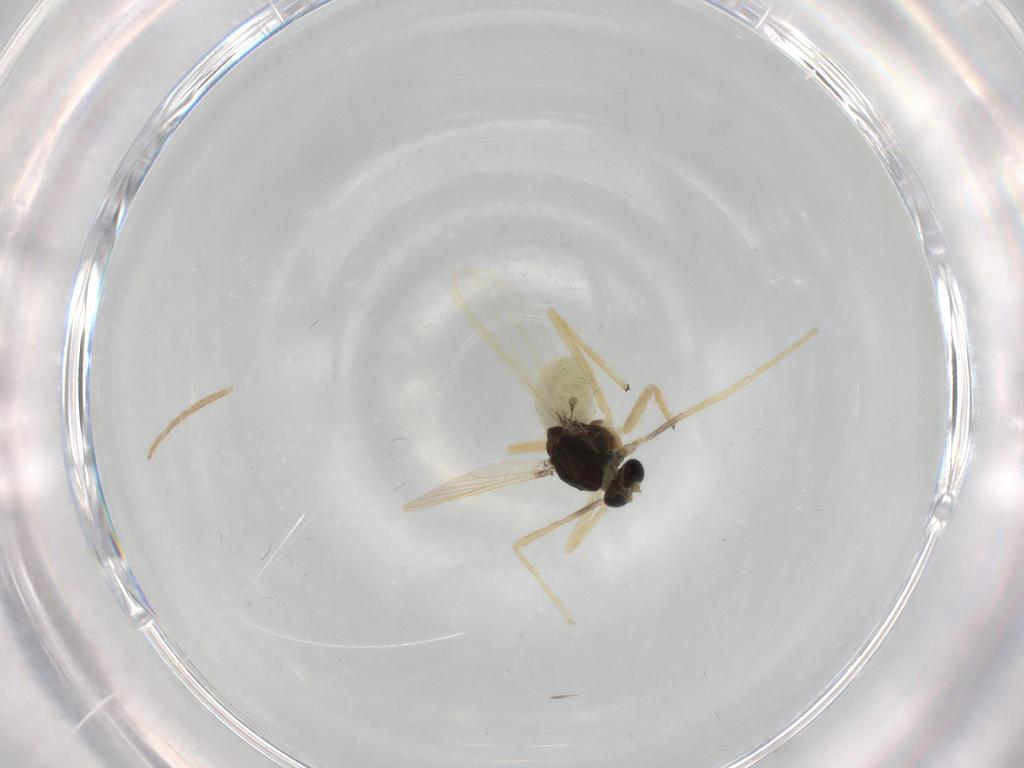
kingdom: Animalia
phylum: Arthropoda
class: Insecta
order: Diptera
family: Chironomidae
